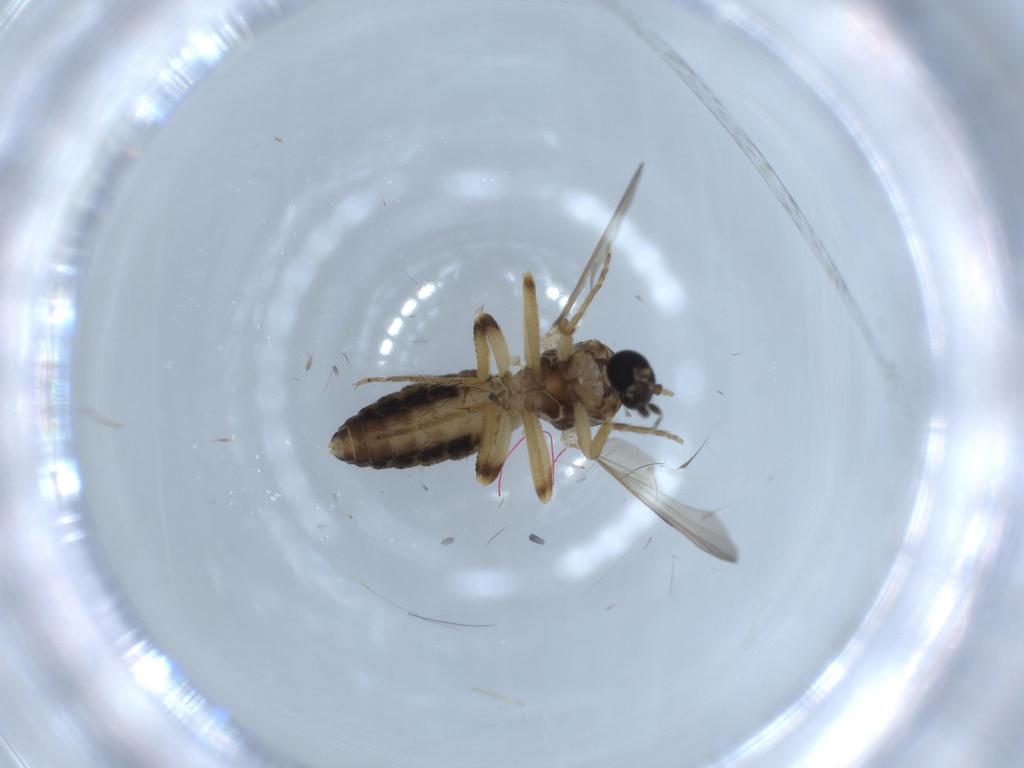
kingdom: Animalia
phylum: Arthropoda
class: Insecta
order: Diptera
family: Ceratopogonidae
